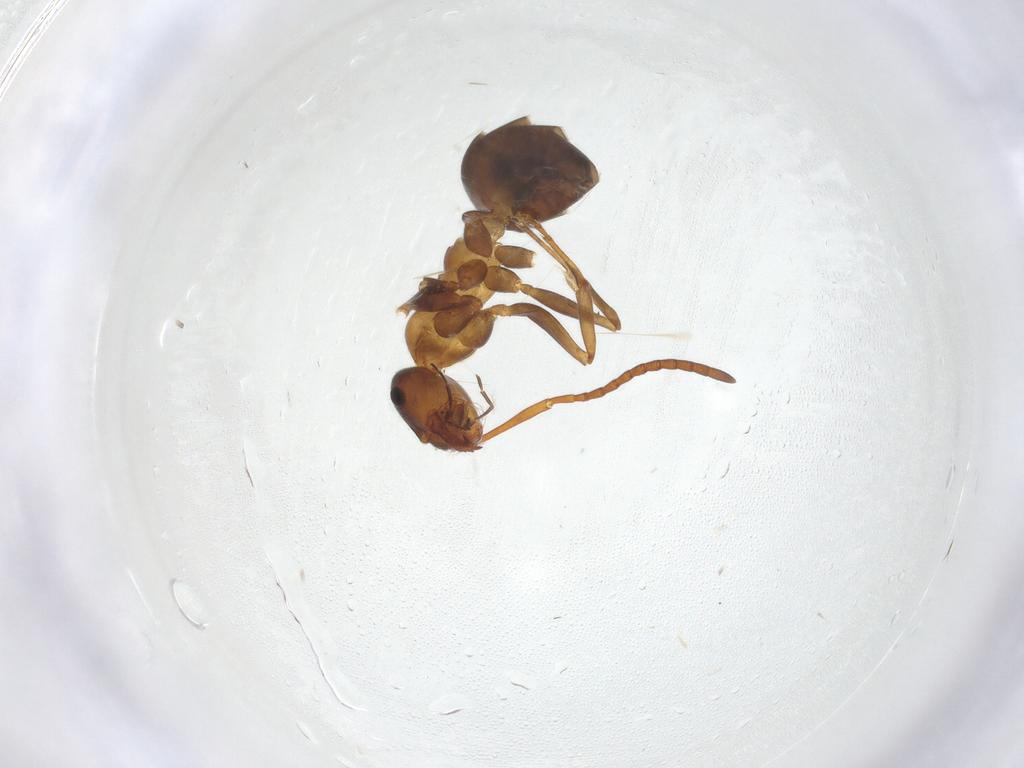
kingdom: Animalia
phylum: Arthropoda
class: Insecta
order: Hymenoptera
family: Formicidae
